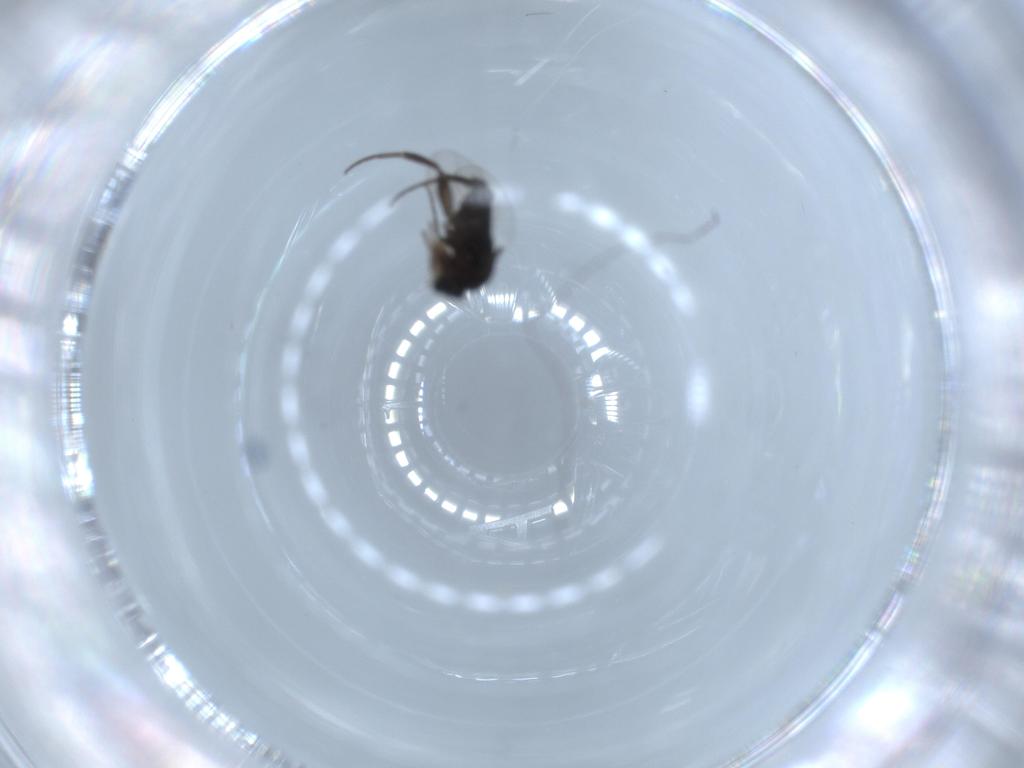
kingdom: Animalia
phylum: Arthropoda
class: Insecta
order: Diptera
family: Phoridae
